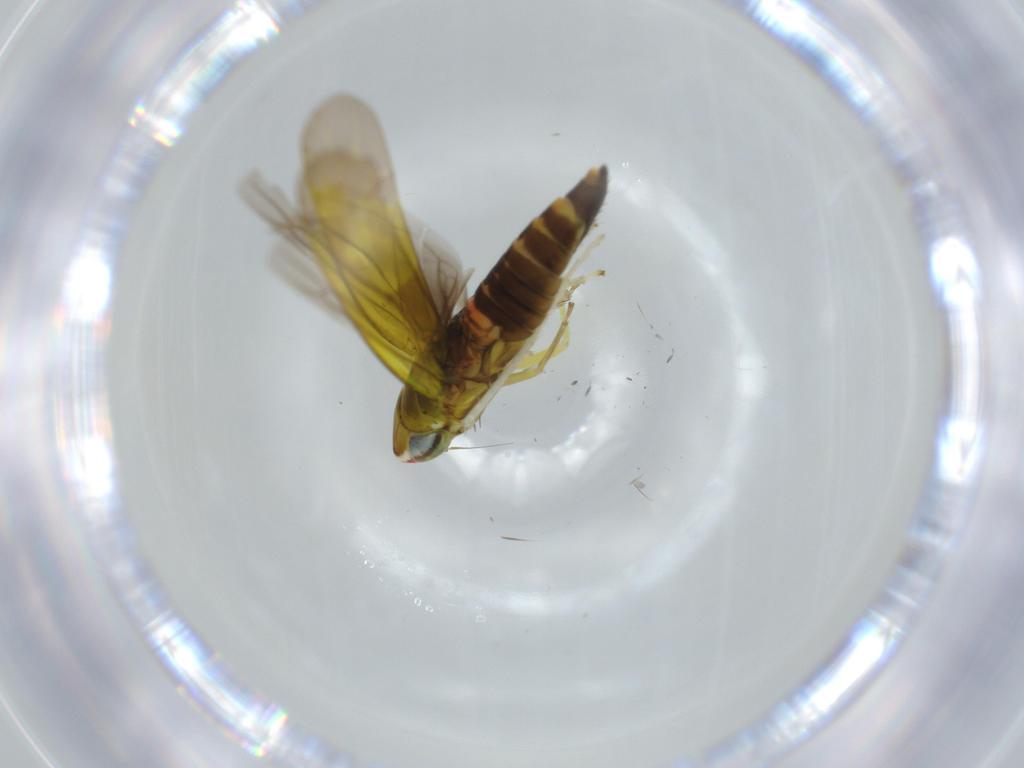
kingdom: Animalia
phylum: Arthropoda
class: Insecta
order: Hemiptera
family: Cicadellidae
